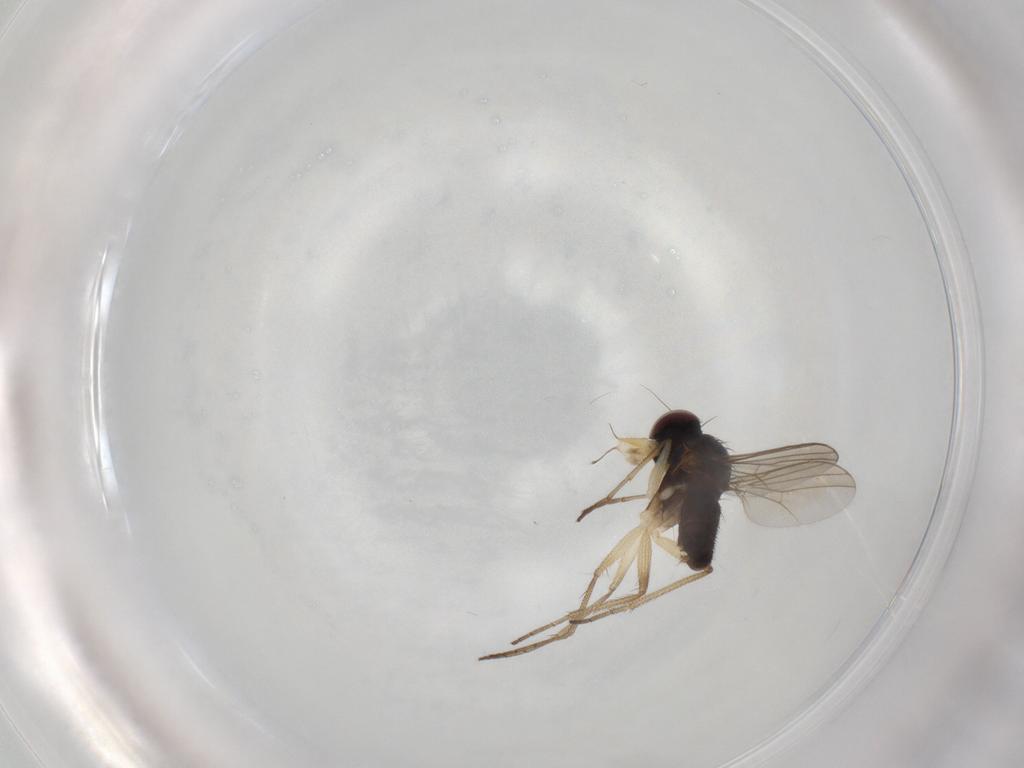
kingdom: Animalia
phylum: Arthropoda
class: Insecta
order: Diptera
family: Dolichopodidae
